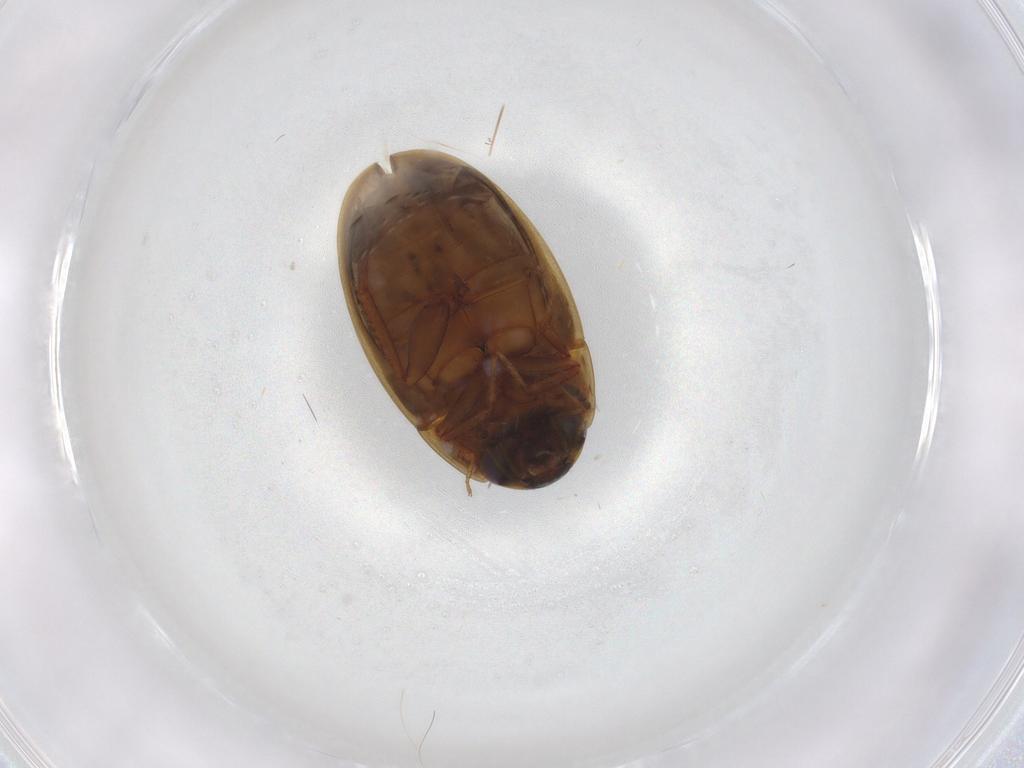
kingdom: Animalia
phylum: Arthropoda
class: Insecta
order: Coleoptera
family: Hydrophilidae
